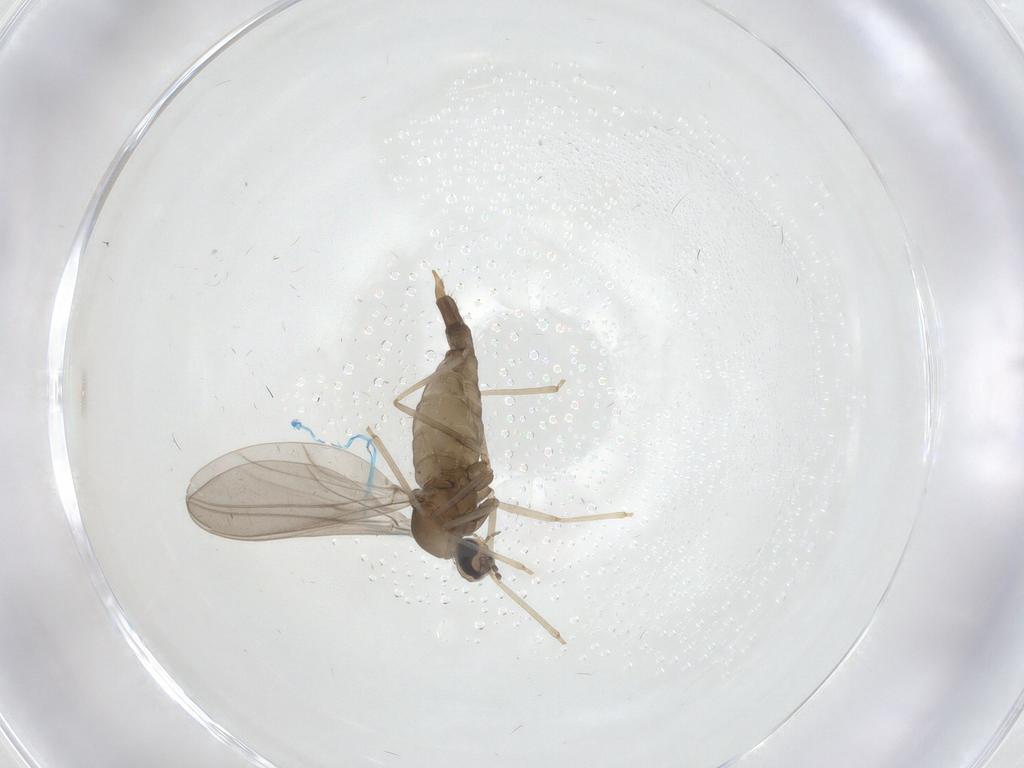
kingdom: Animalia
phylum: Arthropoda
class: Insecta
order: Diptera
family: Cecidomyiidae
